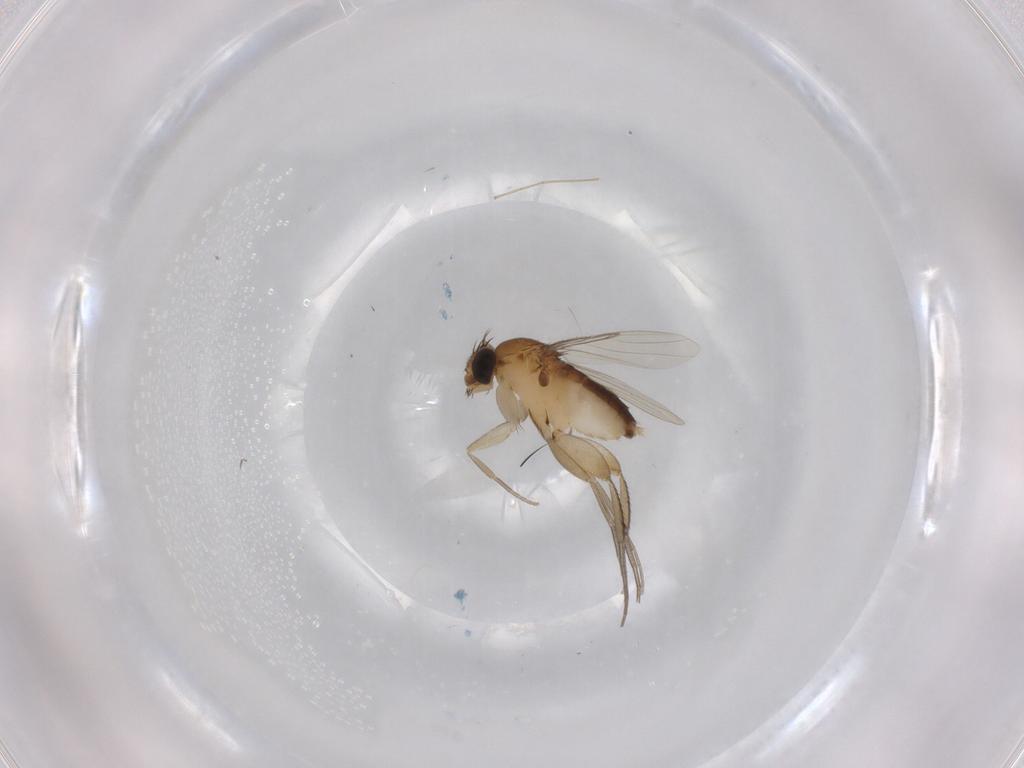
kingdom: Animalia
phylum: Arthropoda
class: Insecta
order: Diptera
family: Phoridae
